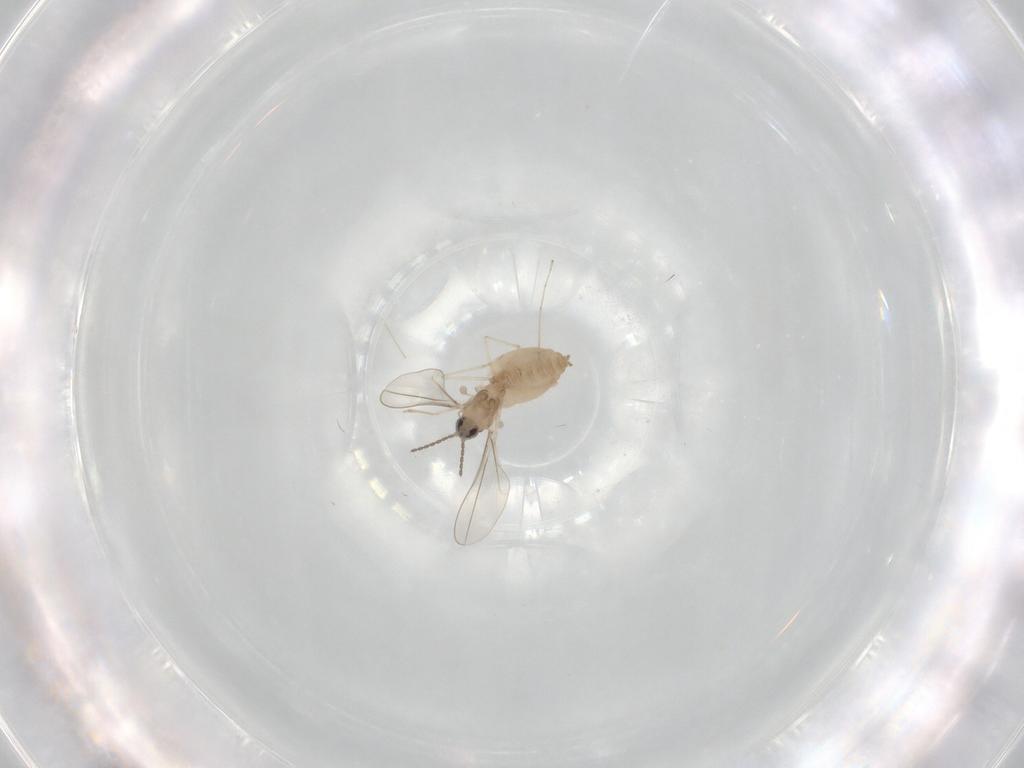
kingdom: Animalia
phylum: Arthropoda
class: Insecta
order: Diptera
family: Cecidomyiidae
